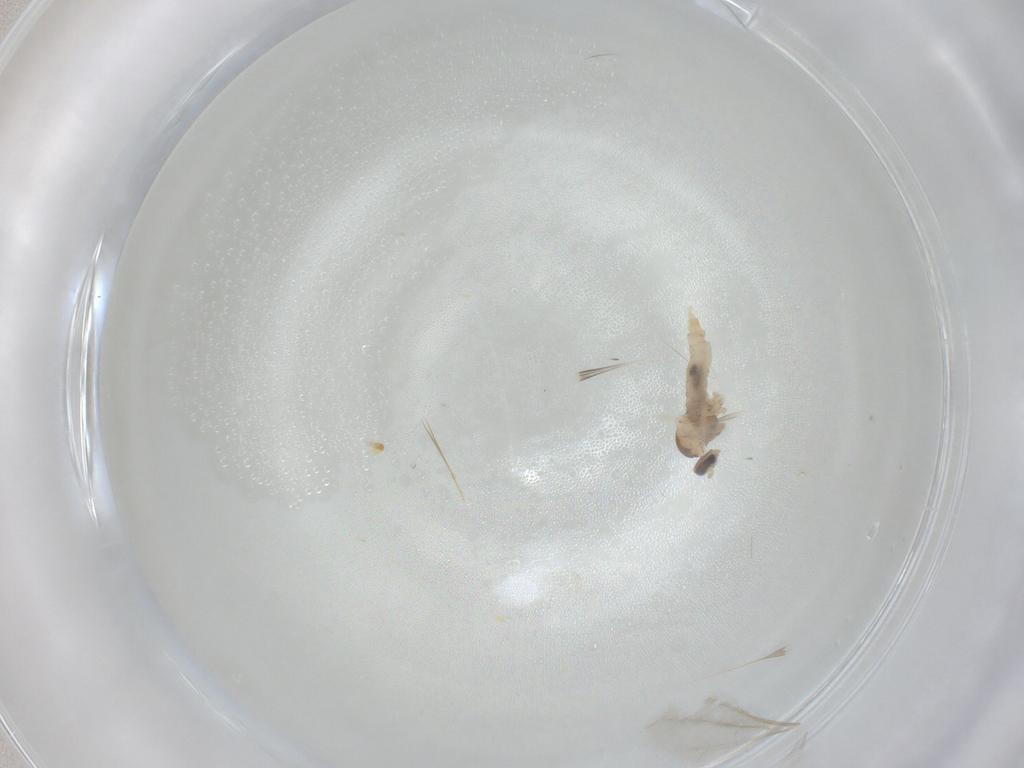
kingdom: Animalia
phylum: Arthropoda
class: Insecta
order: Diptera
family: Cecidomyiidae
